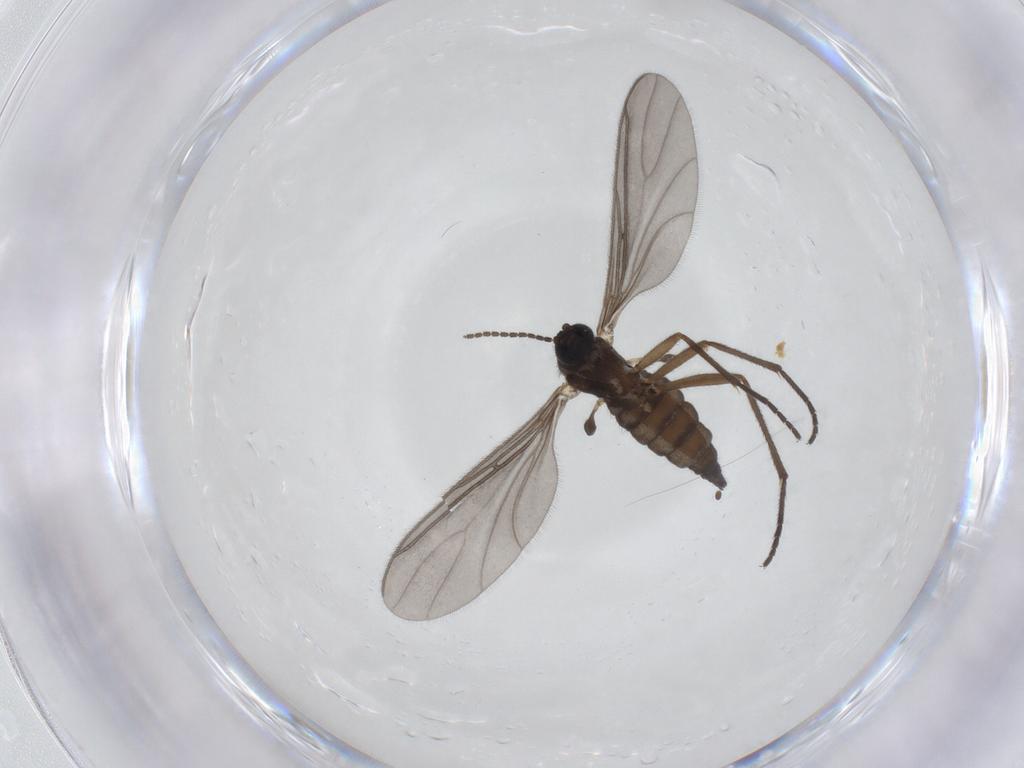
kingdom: Animalia
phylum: Arthropoda
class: Insecta
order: Diptera
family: Sciaridae
